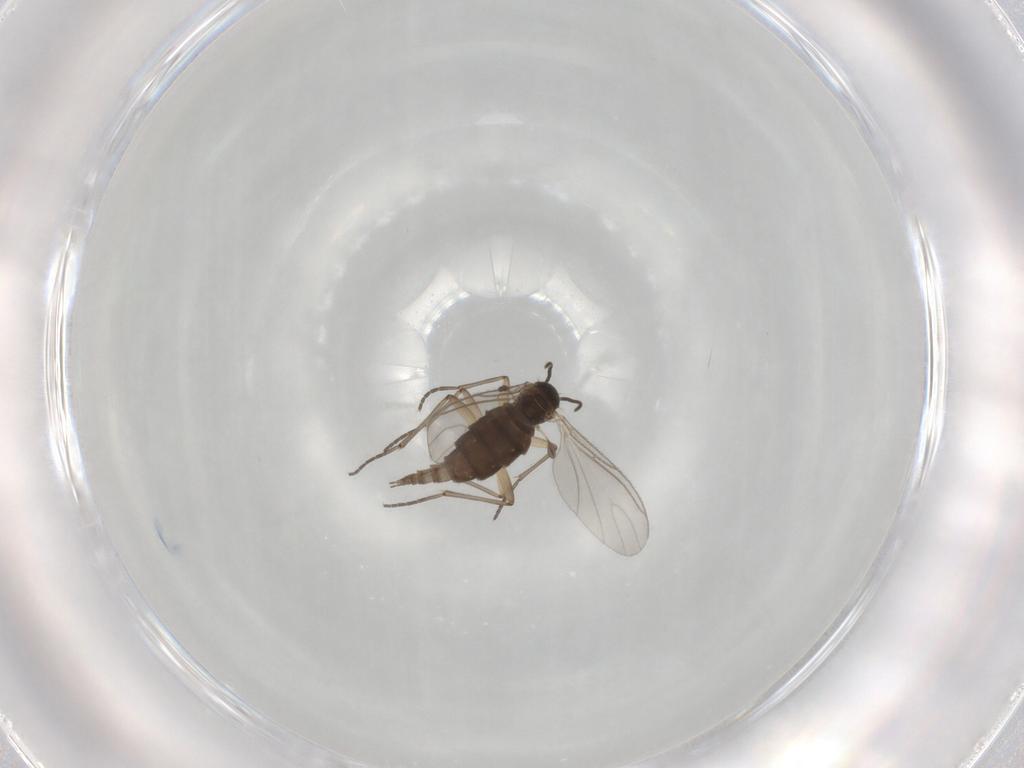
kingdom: Animalia
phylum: Arthropoda
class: Insecta
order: Diptera
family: Sciaridae
